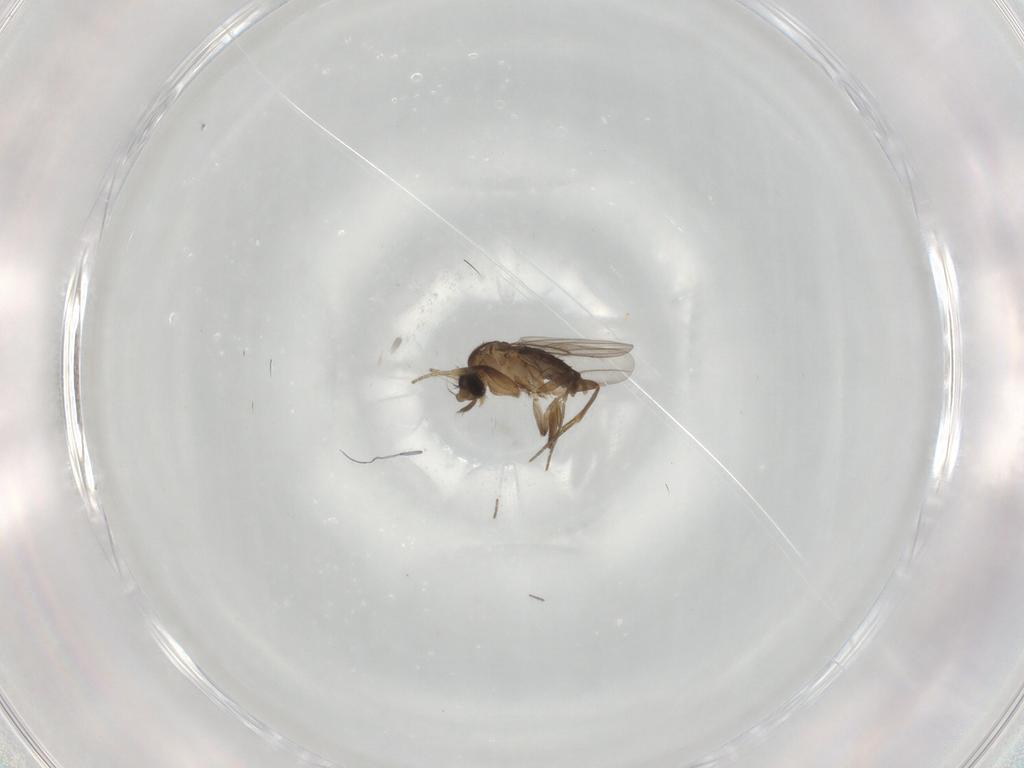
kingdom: Animalia
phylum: Arthropoda
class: Insecta
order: Diptera
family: Phoridae
